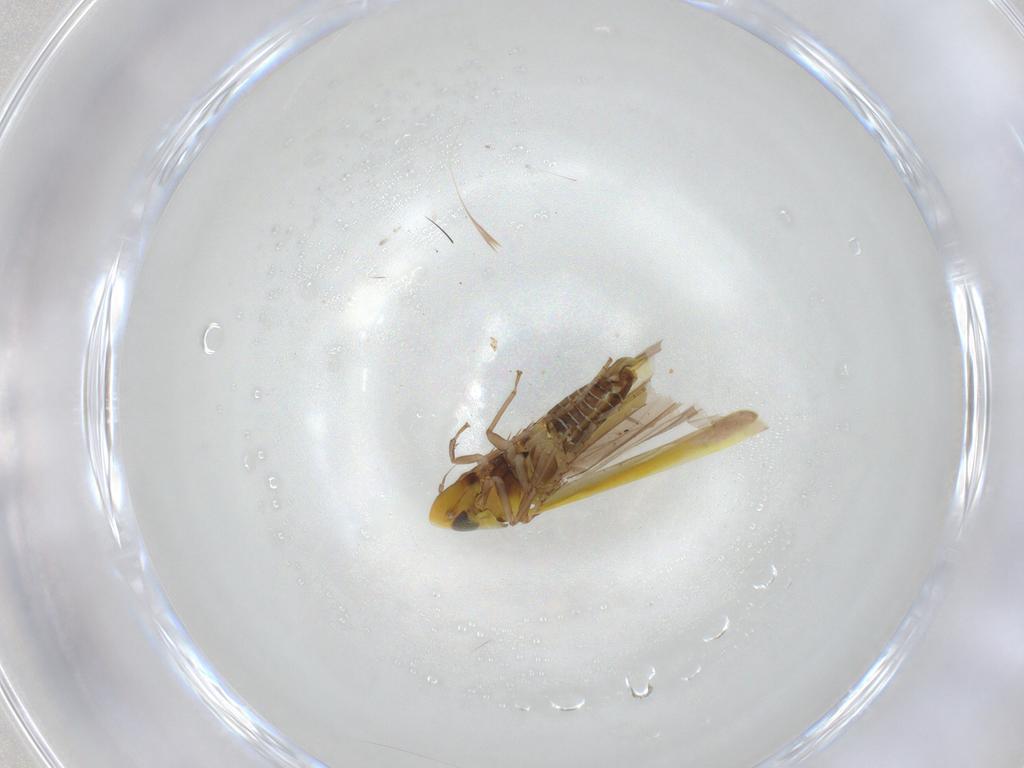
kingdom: Animalia
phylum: Arthropoda
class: Insecta
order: Hemiptera
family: Cicadellidae
